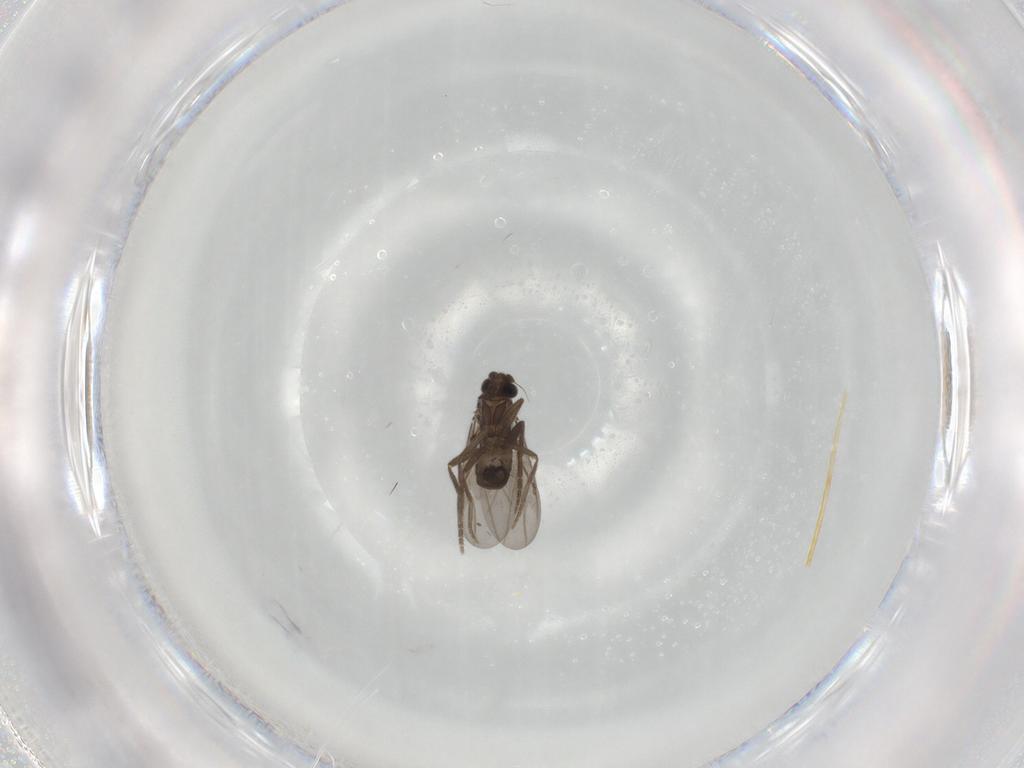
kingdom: Animalia
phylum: Arthropoda
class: Insecta
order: Diptera
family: Phoridae
